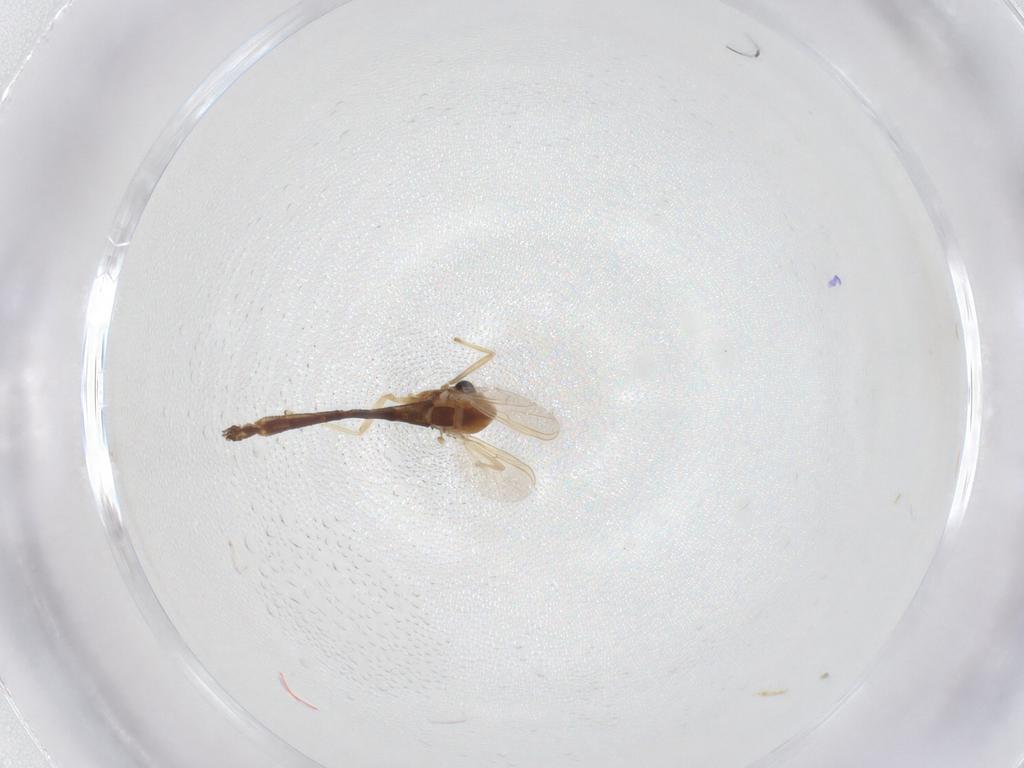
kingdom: Animalia
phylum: Arthropoda
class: Insecta
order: Diptera
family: Chironomidae
